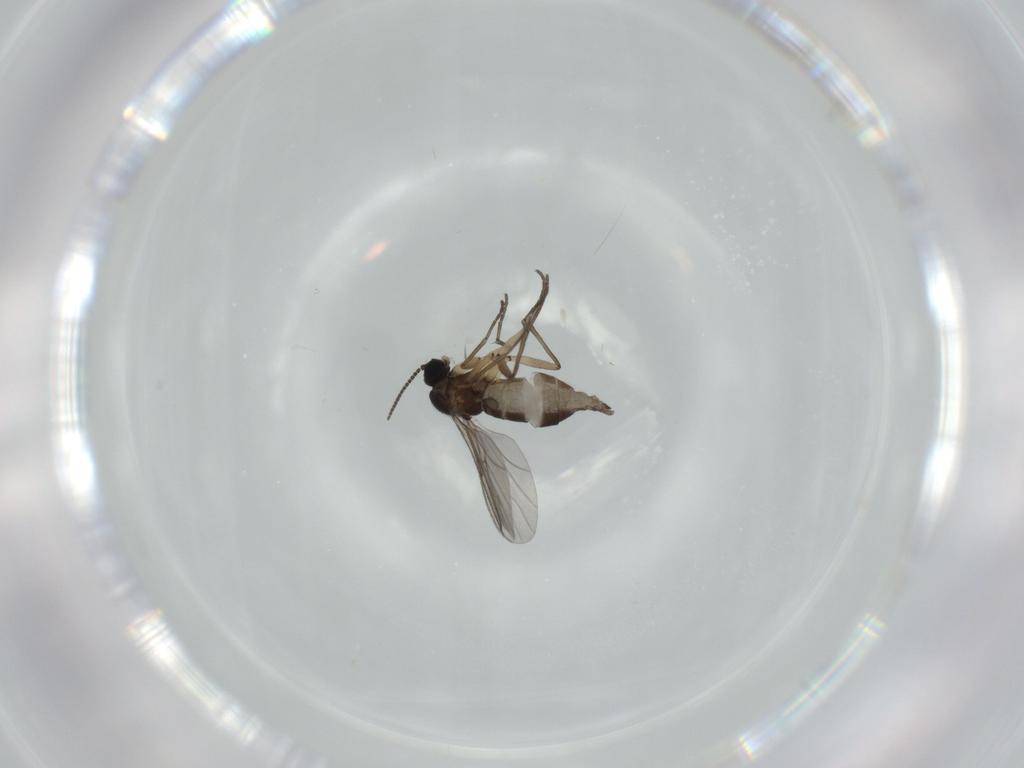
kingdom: Animalia
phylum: Arthropoda
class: Insecta
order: Diptera
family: Sciaridae
